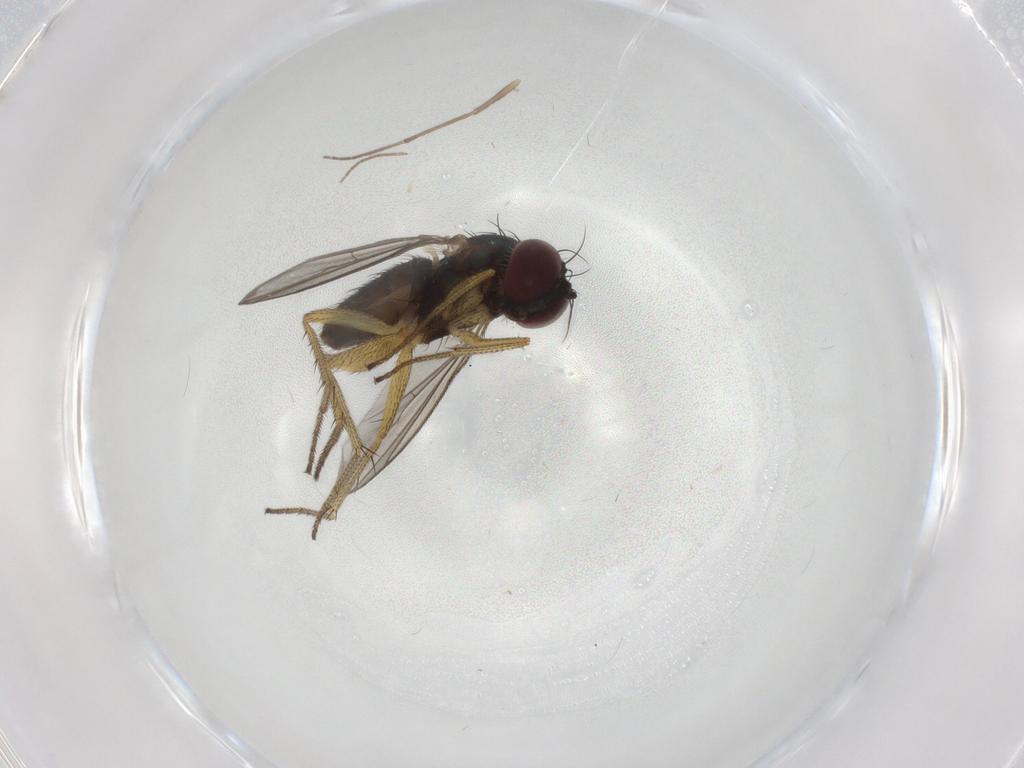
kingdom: Animalia
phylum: Arthropoda
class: Insecta
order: Diptera
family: Chironomidae
